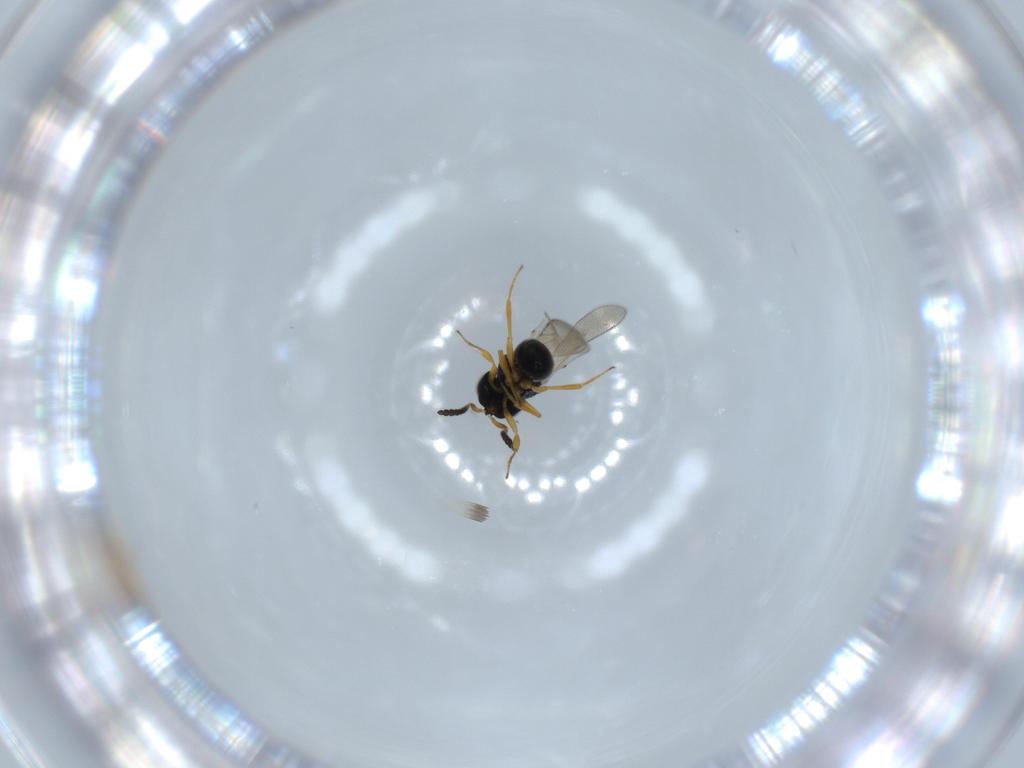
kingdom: Animalia
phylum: Arthropoda
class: Insecta
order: Hymenoptera
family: Scelionidae
